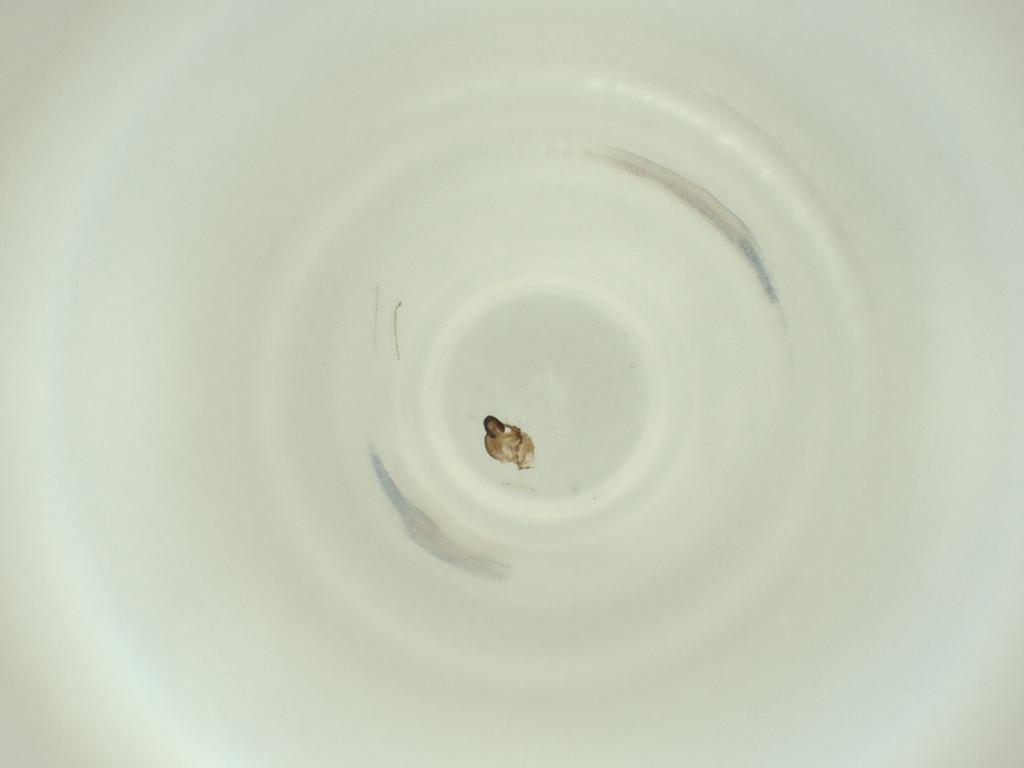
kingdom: Animalia
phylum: Arthropoda
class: Insecta
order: Diptera
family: Cecidomyiidae
